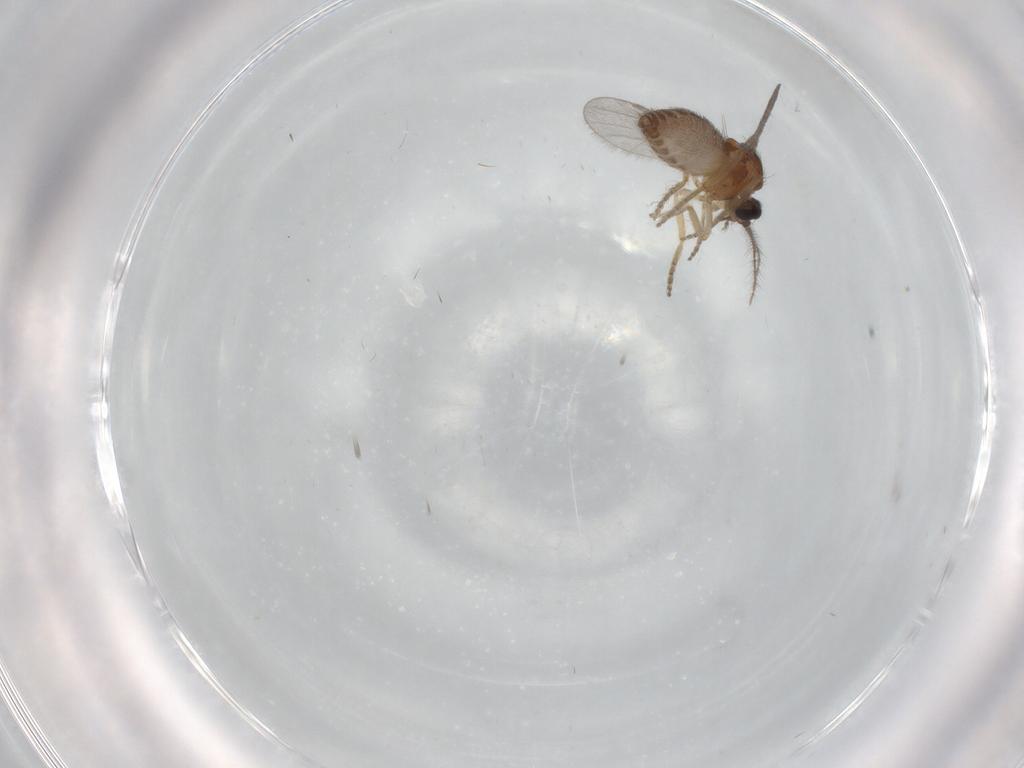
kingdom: Animalia
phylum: Arthropoda
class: Insecta
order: Diptera
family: Ceratopogonidae
